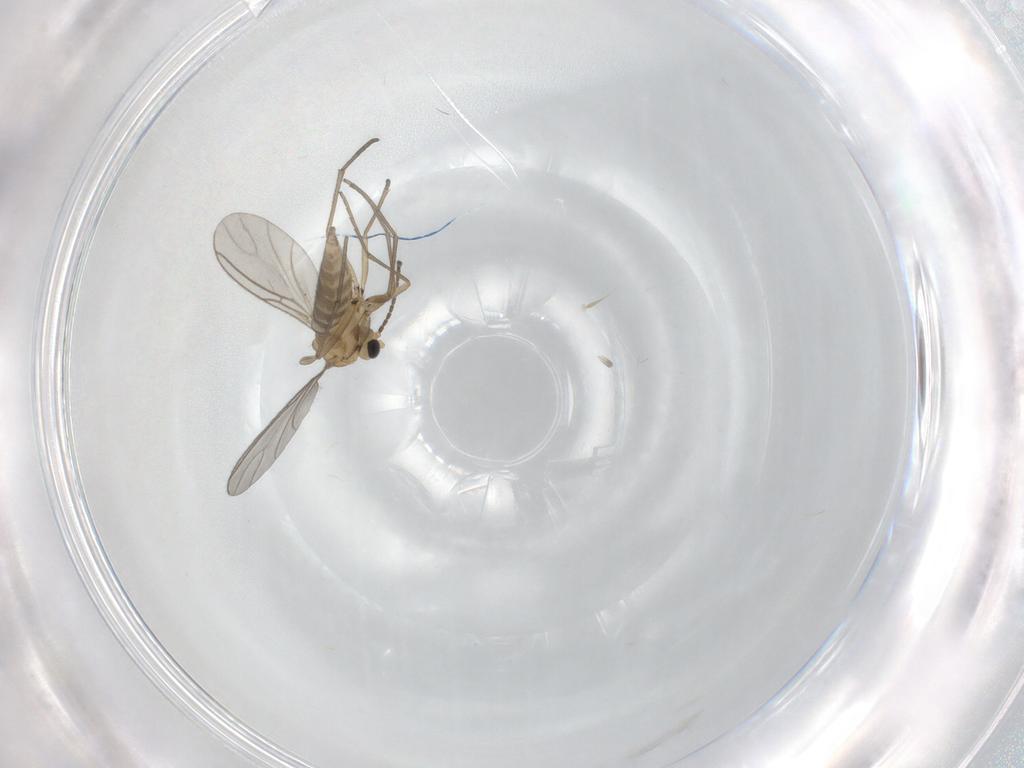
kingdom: Animalia
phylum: Arthropoda
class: Insecta
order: Diptera
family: Sciaridae
